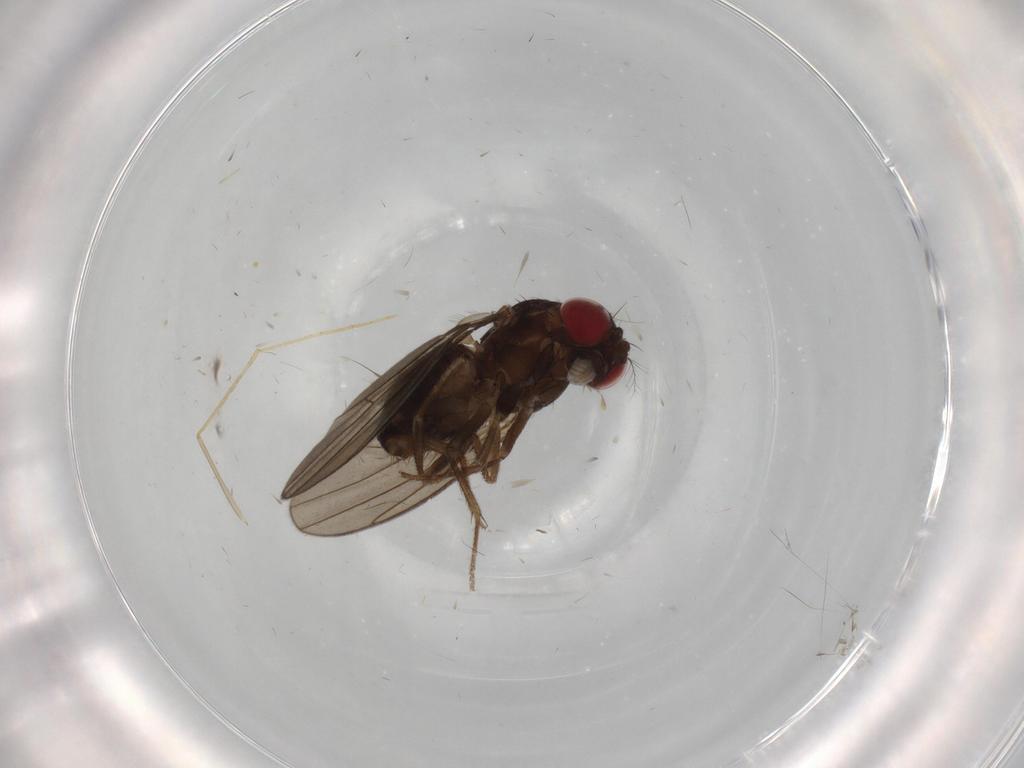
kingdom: Animalia
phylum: Arthropoda
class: Insecta
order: Diptera
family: Drosophilidae
